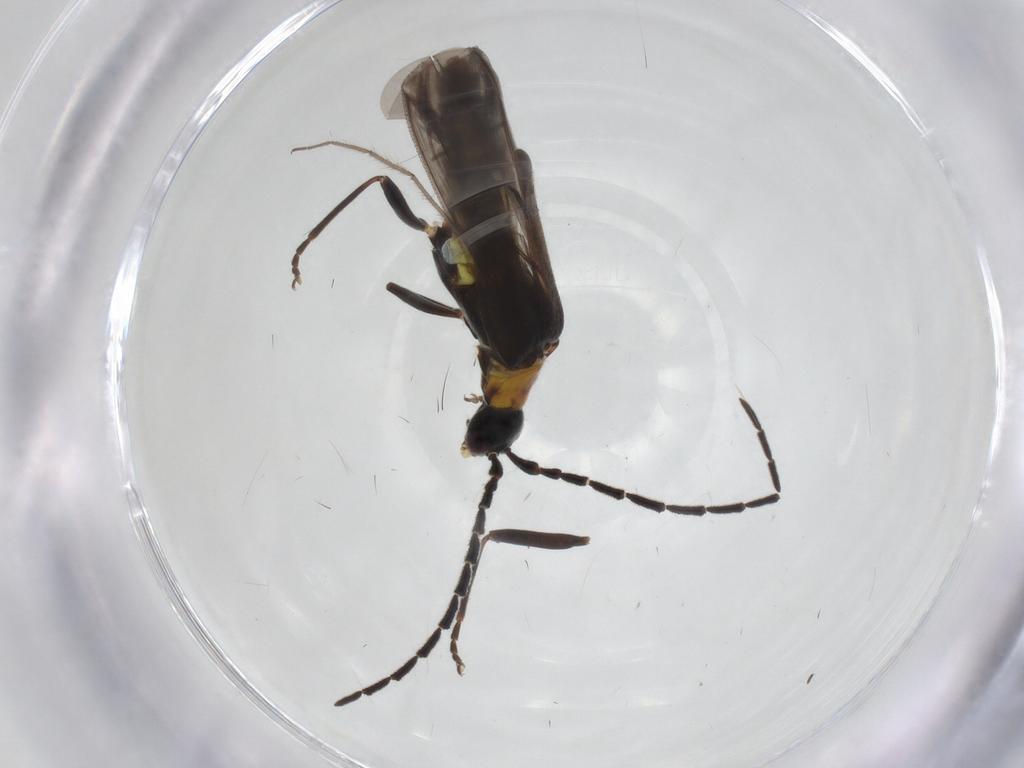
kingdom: Animalia
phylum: Arthropoda
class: Insecta
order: Coleoptera
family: Cantharidae
